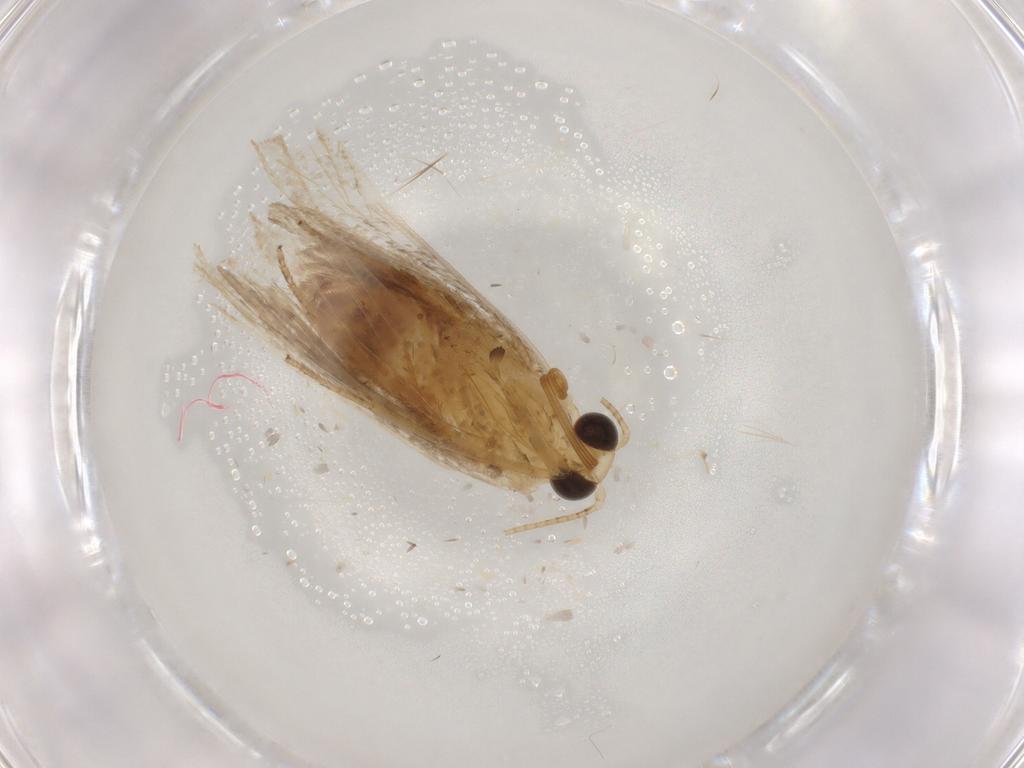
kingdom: Animalia
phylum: Arthropoda
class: Insecta
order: Lepidoptera
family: Erebidae
